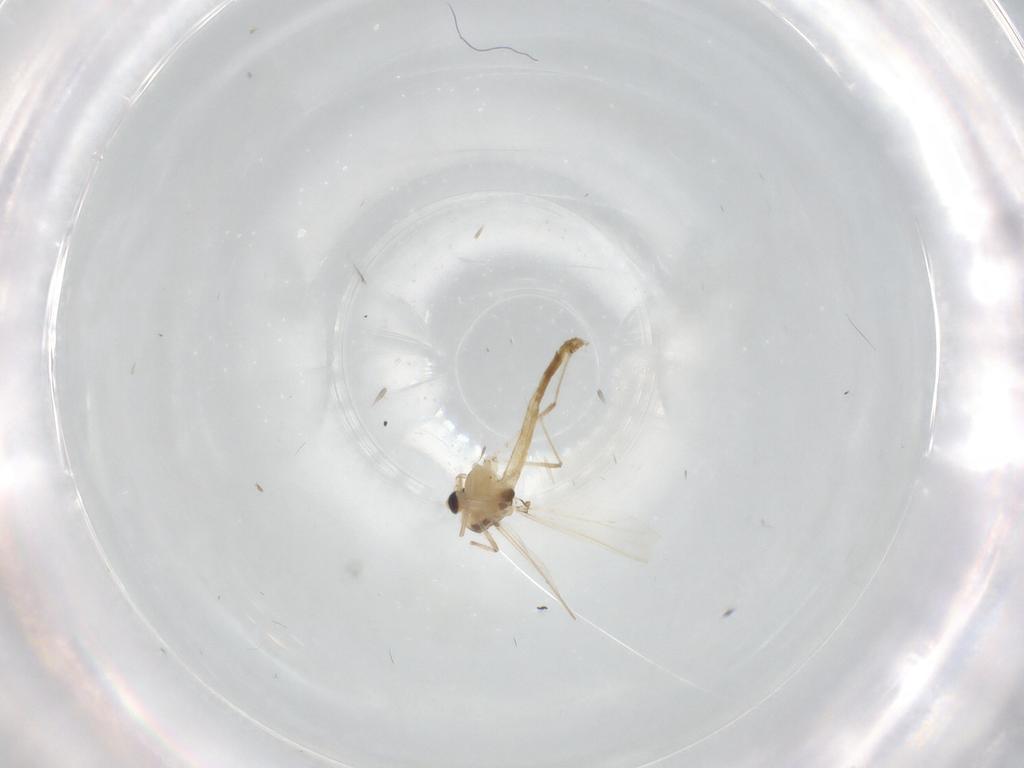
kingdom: Animalia
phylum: Arthropoda
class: Insecta
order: Diptera
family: Chironomidae
